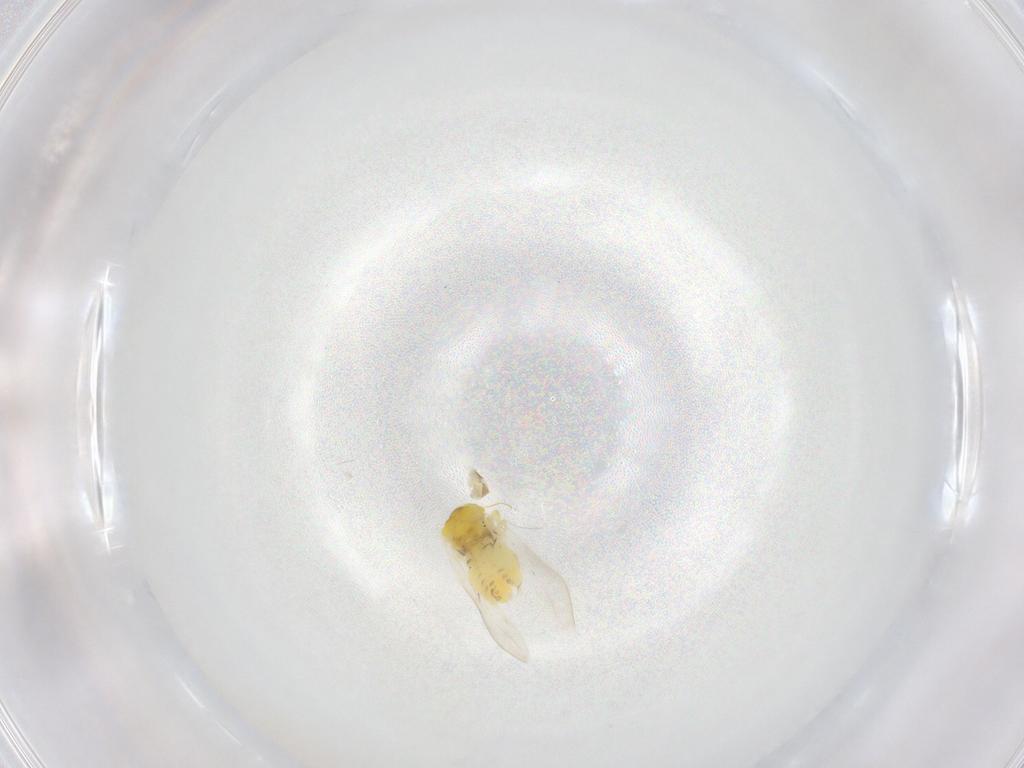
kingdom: Animalia
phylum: Arthropoda
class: Insecta
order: Hemiptera
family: Aleyrodidae
